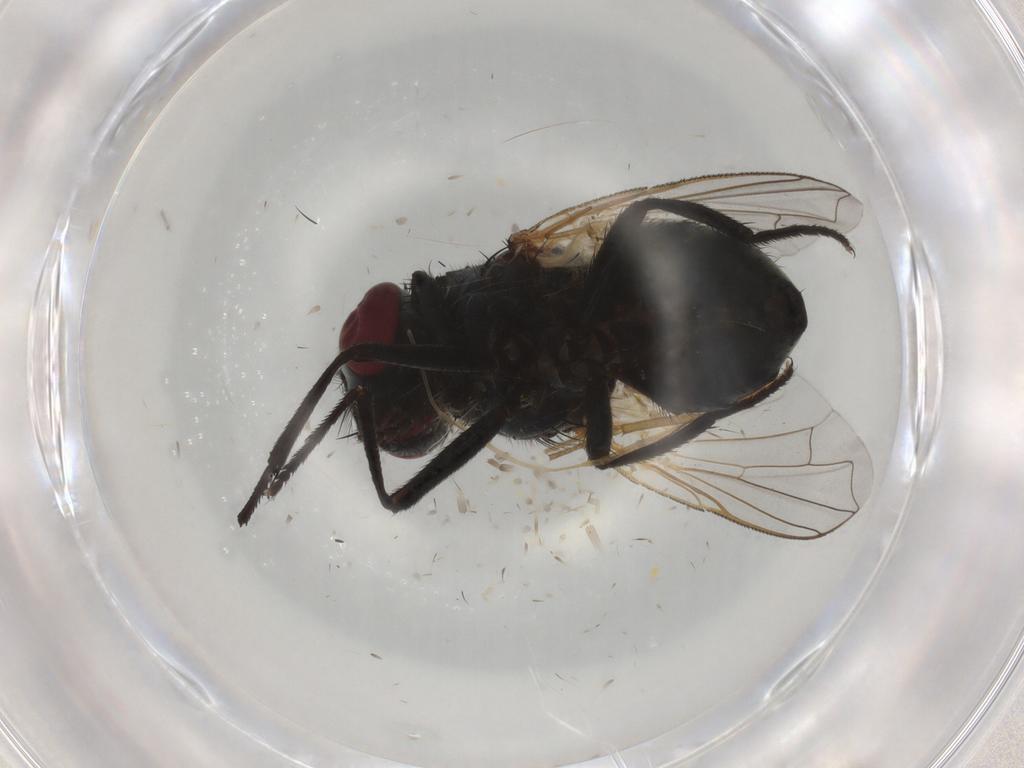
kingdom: Animalia
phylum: Arthropoda
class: Insecta
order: Diptera
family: Muscidae
